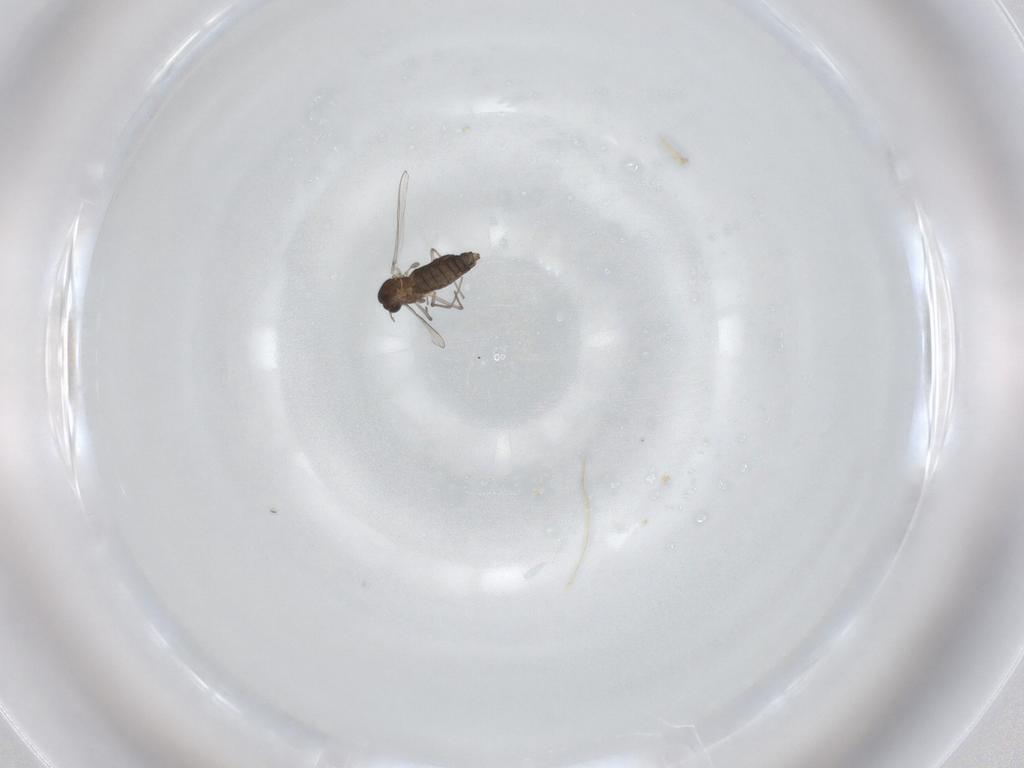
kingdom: Animalia
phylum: Arthropoda
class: Insecta
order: Diptera
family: Chironomidae
